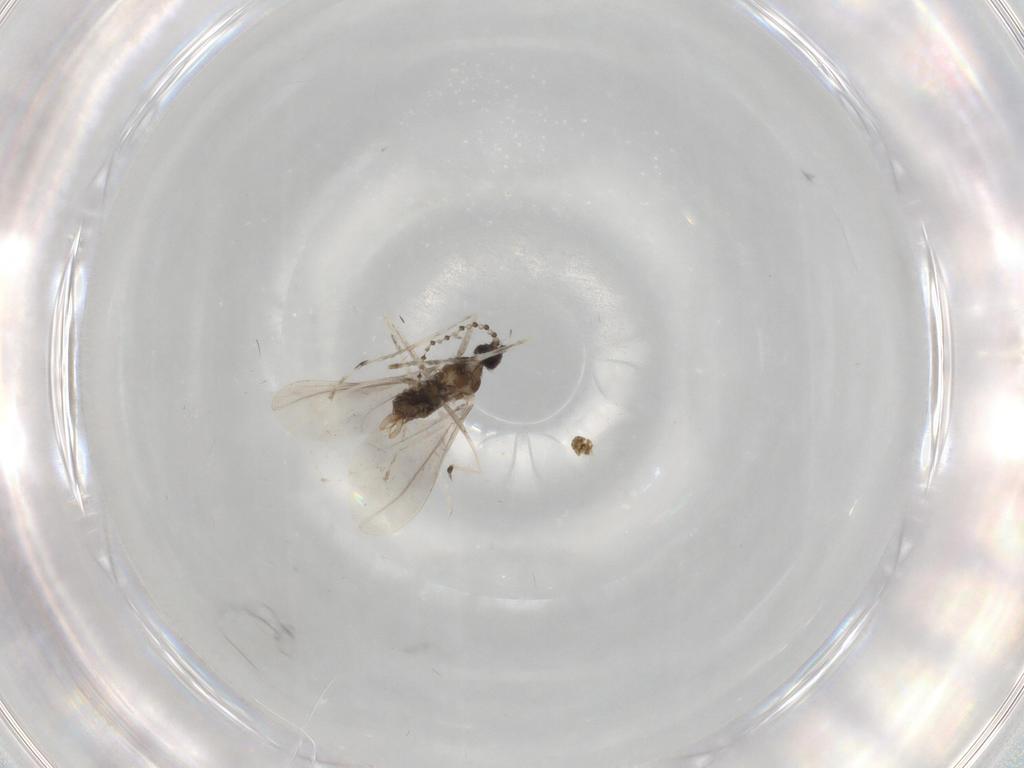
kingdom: Animalia
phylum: Arthropoda
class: Insecta
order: Diptera
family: Cecidomyiidae
